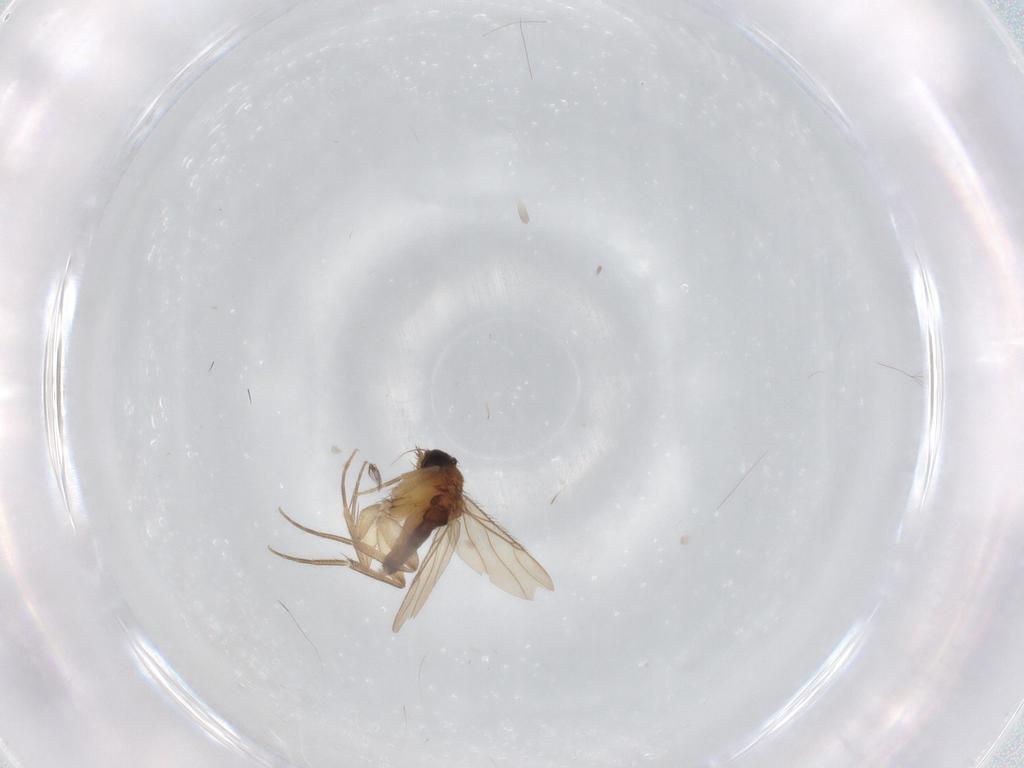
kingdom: Animalia
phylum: Arthropoda
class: Insecta
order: Diptera
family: Phoridae
